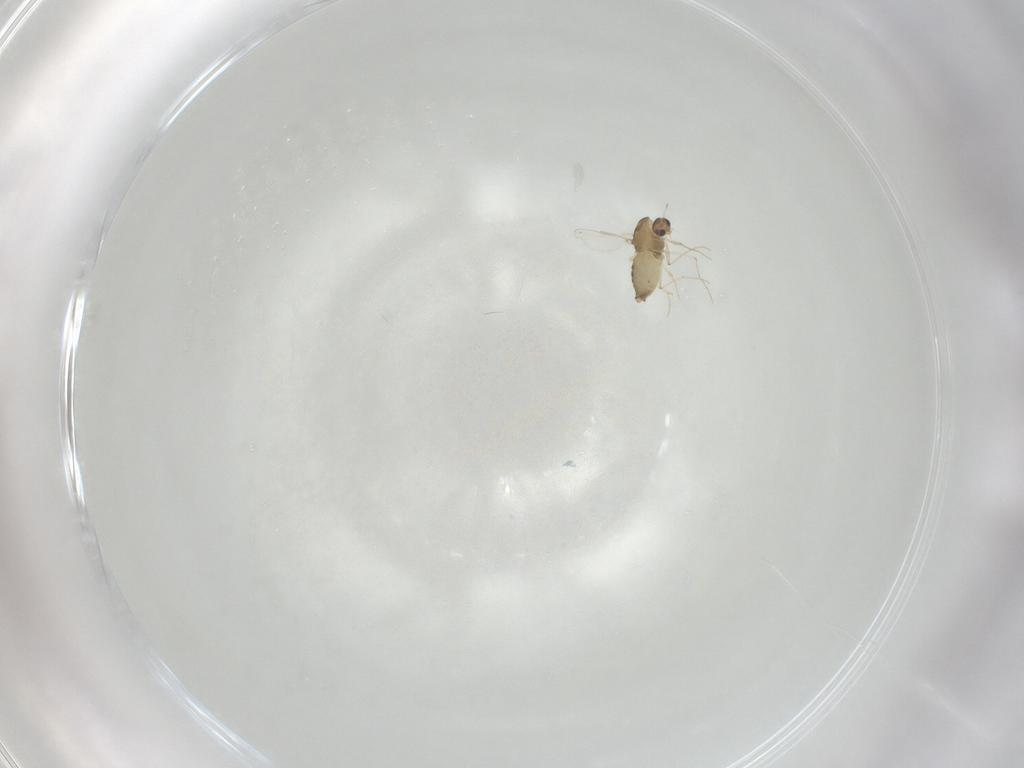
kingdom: Animalia
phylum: Arthropoda
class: Insecta
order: Diptera
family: Chironomidae
